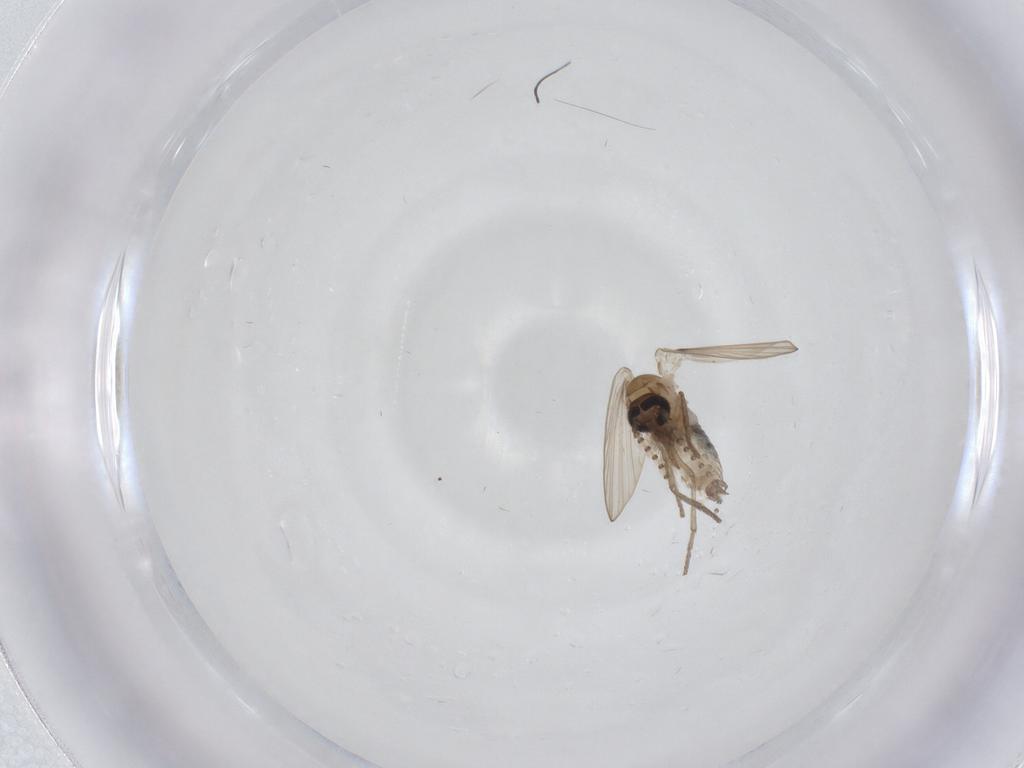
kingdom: Animalia
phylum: Arthropoda
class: Insecta
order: Diptera
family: Psychodidae
